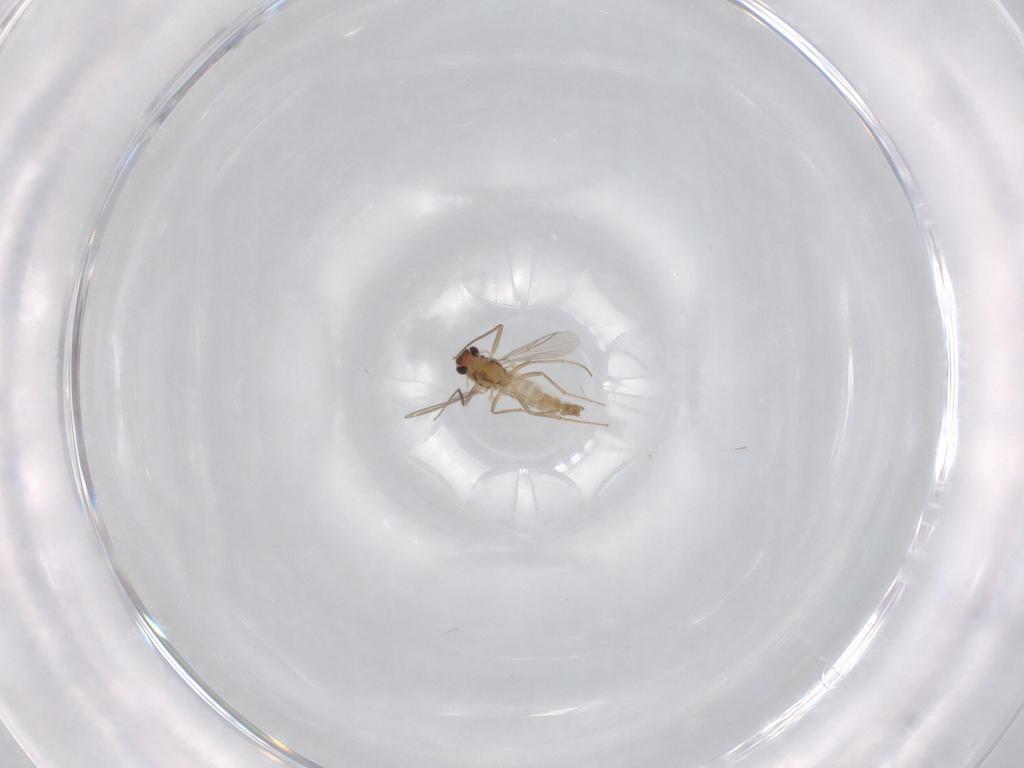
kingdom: Animalia
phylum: Arthropoda
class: Insecta
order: Diptera
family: Chironomidae
